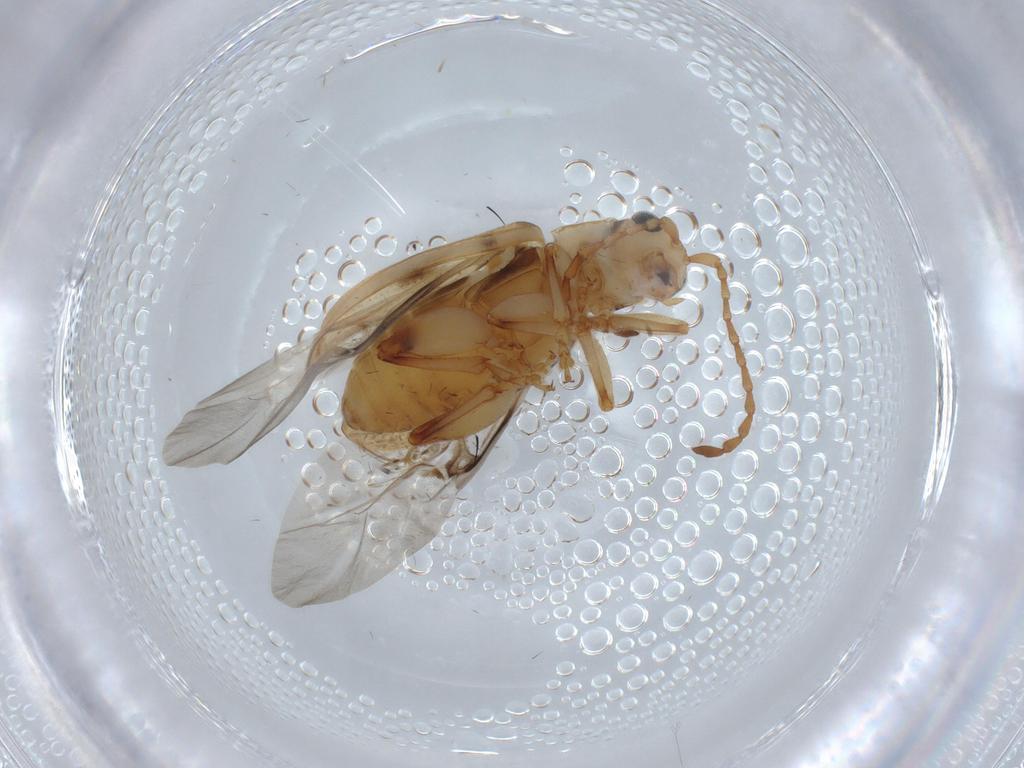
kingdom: Animalia
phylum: Arthropoda
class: Insecta
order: Coleoptera
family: Chrysomelidae
